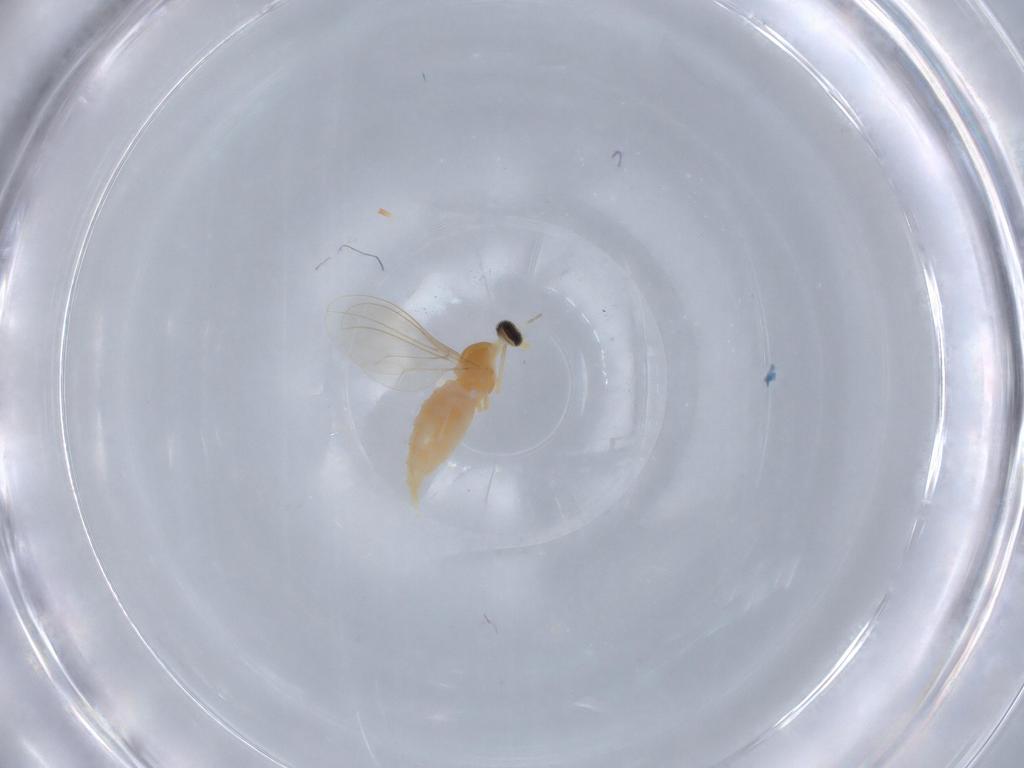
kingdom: Animalia
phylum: Arthropoda
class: Insecta
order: Diptera
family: Cecidomyiidae
